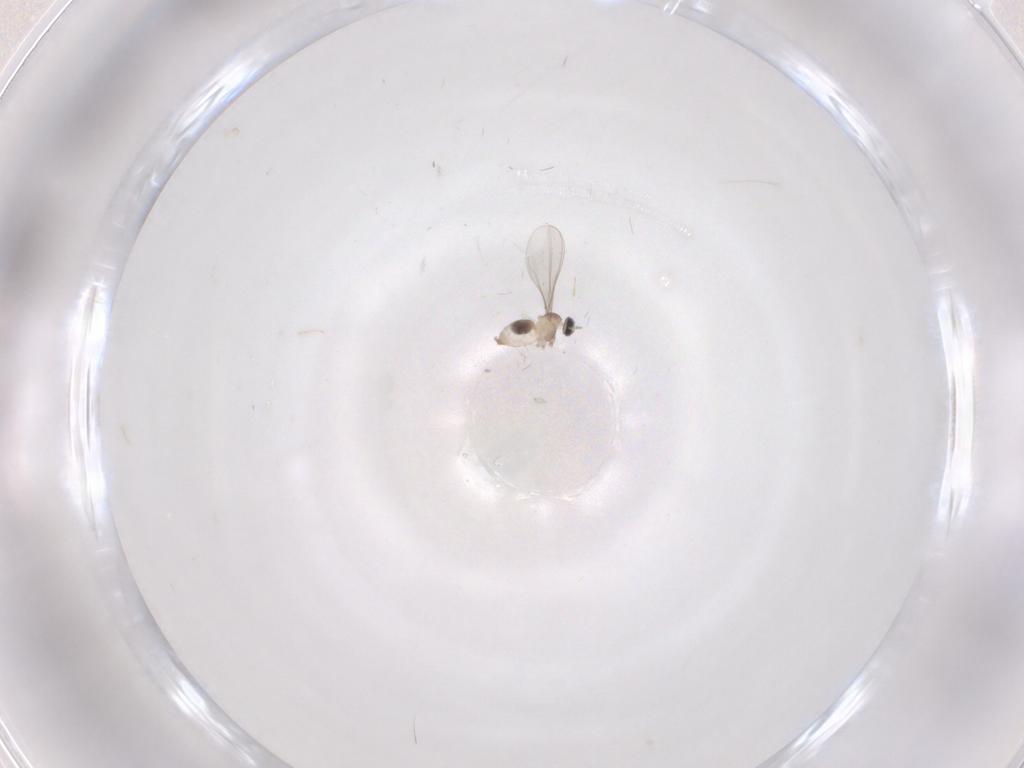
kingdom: Animalia
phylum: Arthropoda
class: Insecta
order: Diptera
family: Cecidomyiidae
